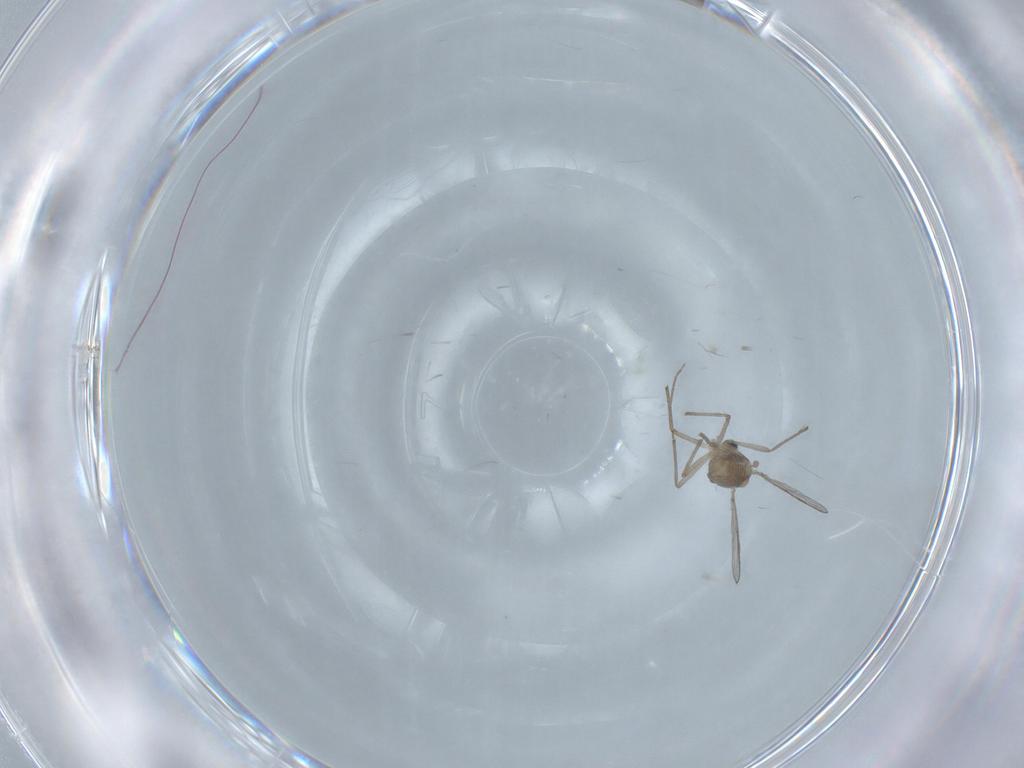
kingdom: Animalia
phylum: Arthropoda
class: Insecta
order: Diptera
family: Chironomidae
